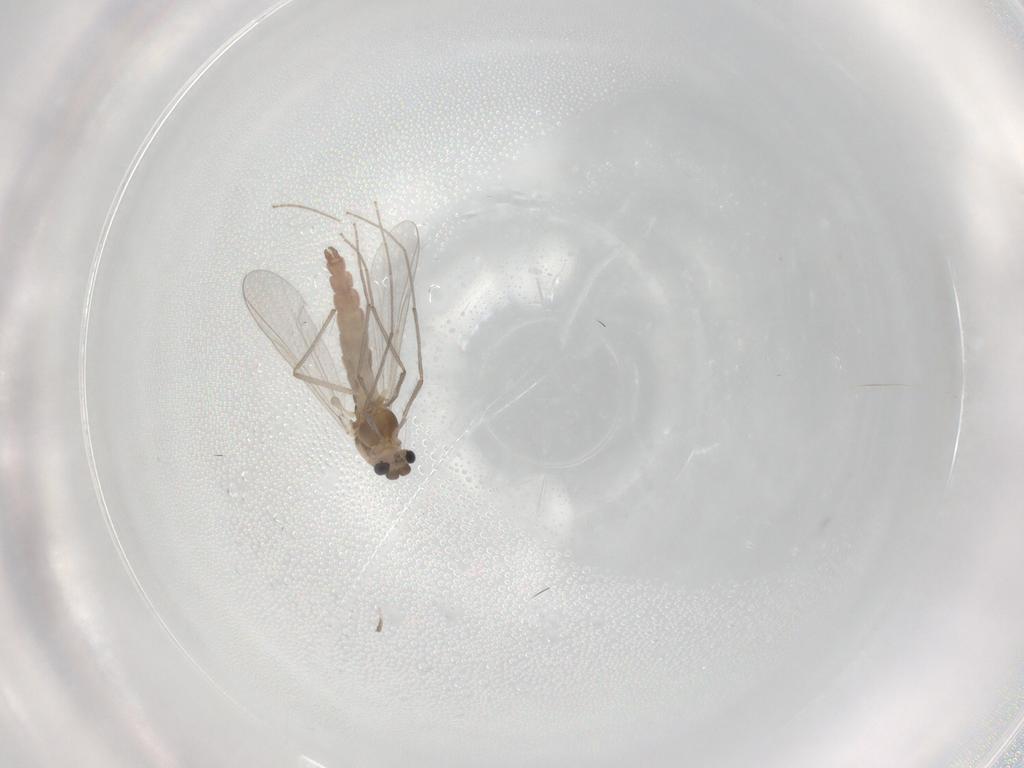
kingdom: Animalia
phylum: Arthropoda
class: Insecta
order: Diptera
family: Chironomidae
